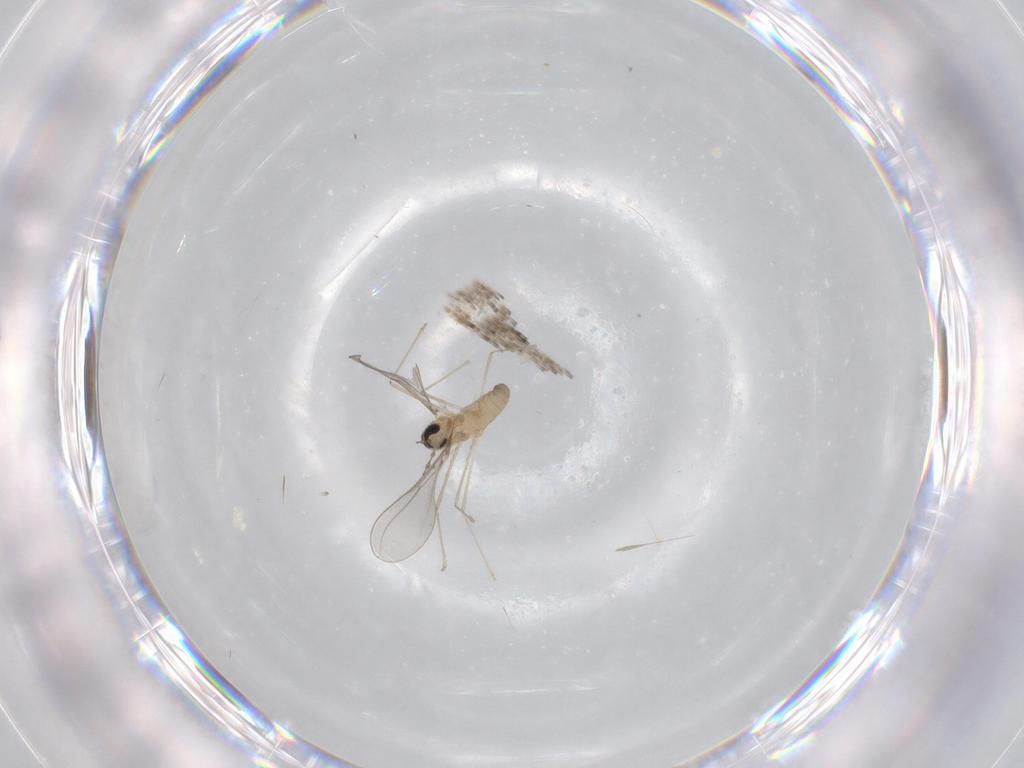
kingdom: Animalia
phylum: Arthropoda
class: Insecta
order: Diptera
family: Cecidomyiidae
